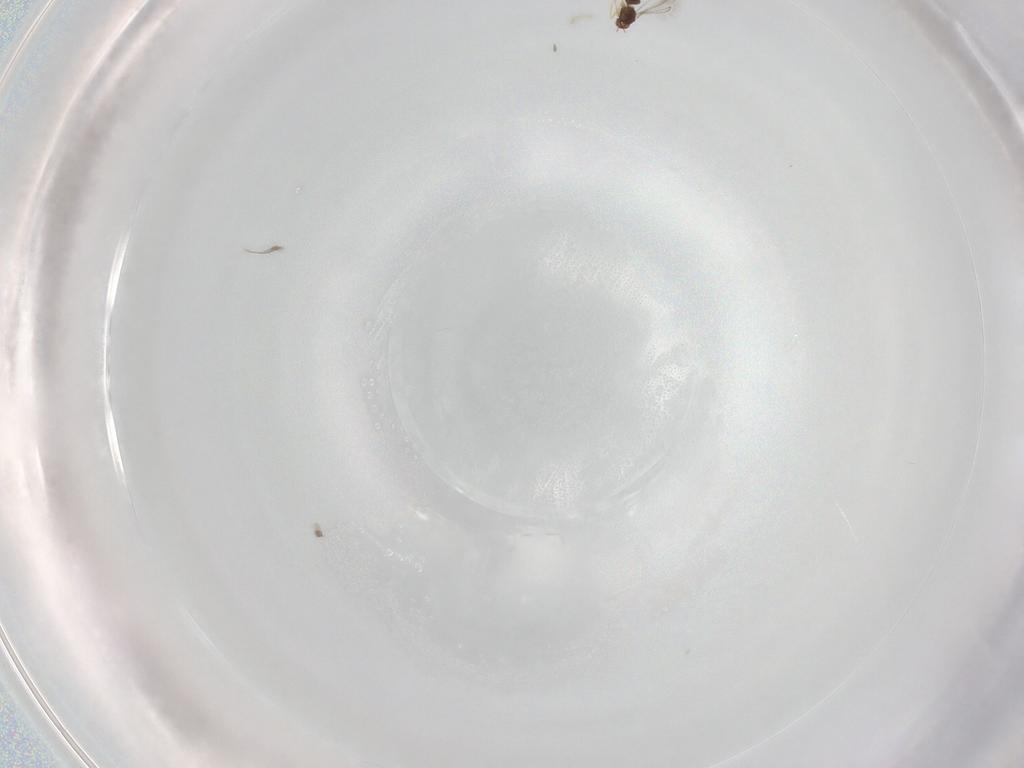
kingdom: Animalia
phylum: Arthropoda
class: Insecta
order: Hymenoptera
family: Ichneumonidae
